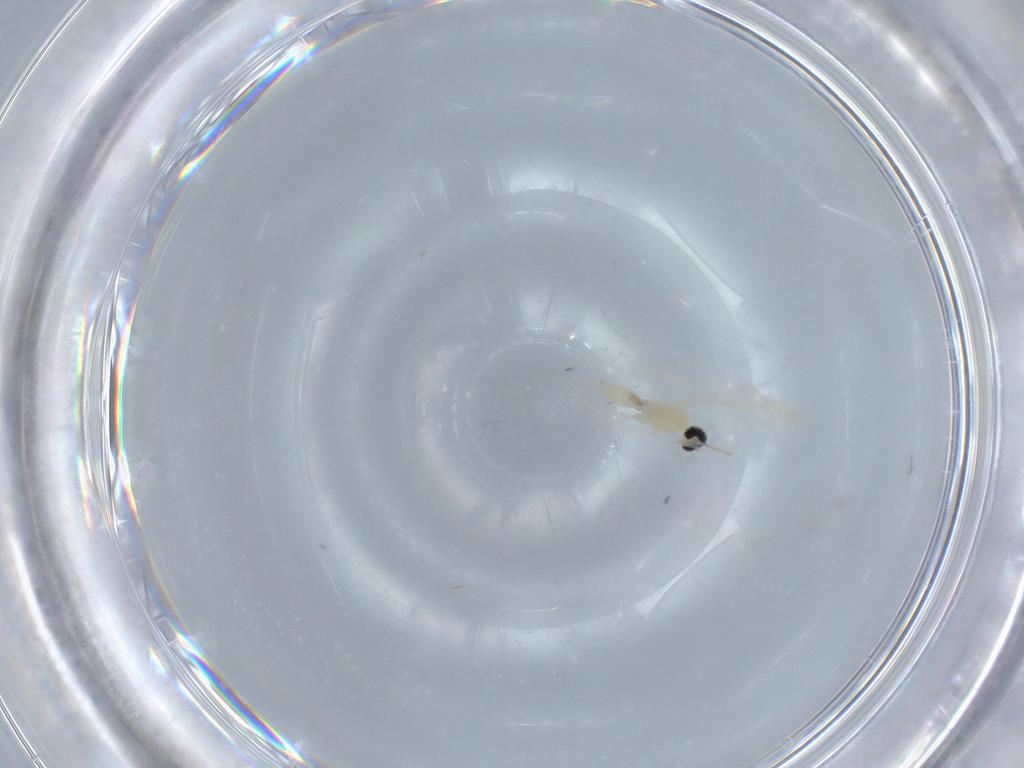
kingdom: Animalia
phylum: Arthropoda
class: Insecta
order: Diptera
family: Cecidomyiidae
